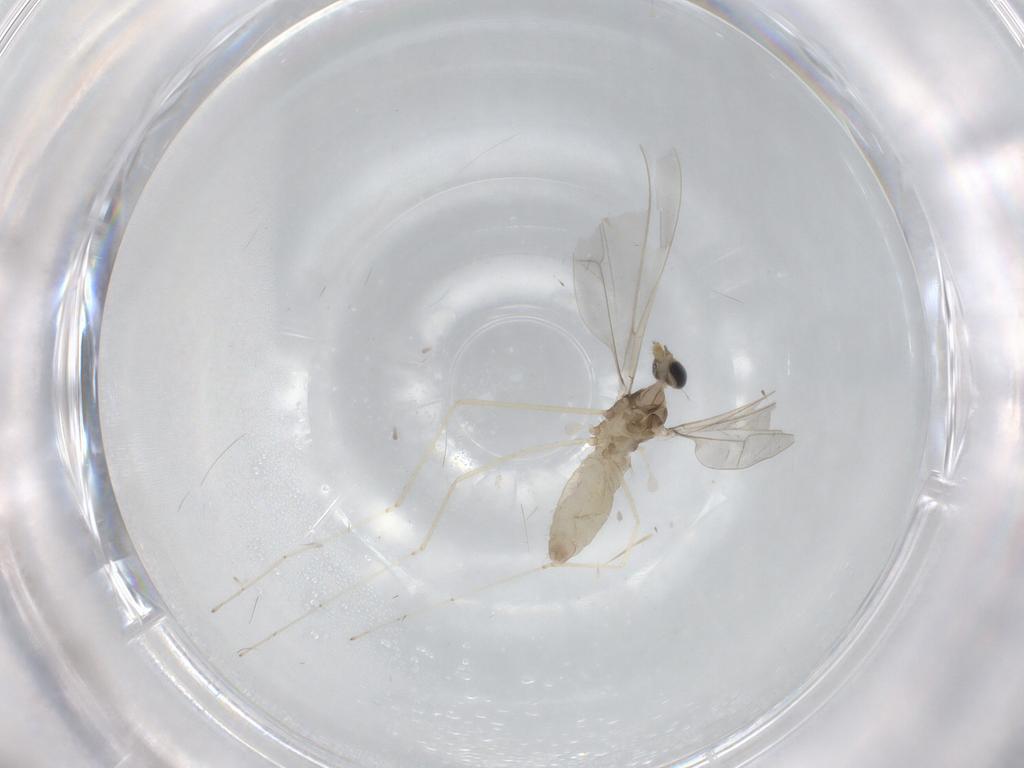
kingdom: Animalia
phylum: Arthropoda
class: Insecta
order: Diptera
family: Cecidomyiidae
